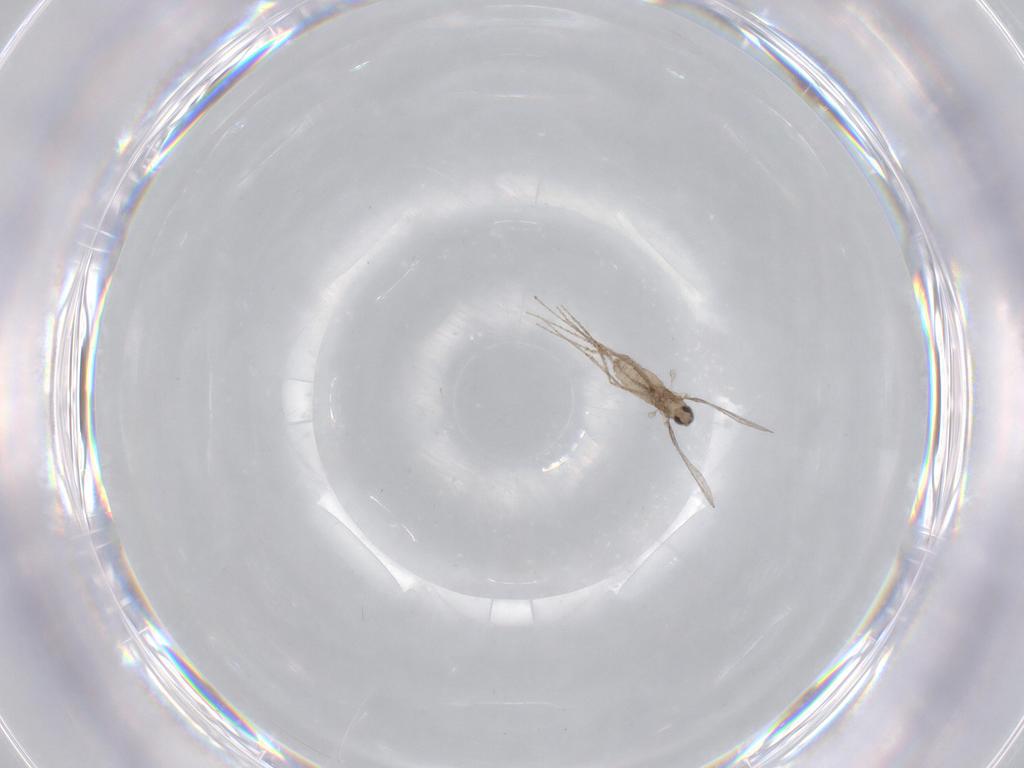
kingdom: Animalia
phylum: Arthropoda
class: Insecta
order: Diptera
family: Cecidomyiidae
